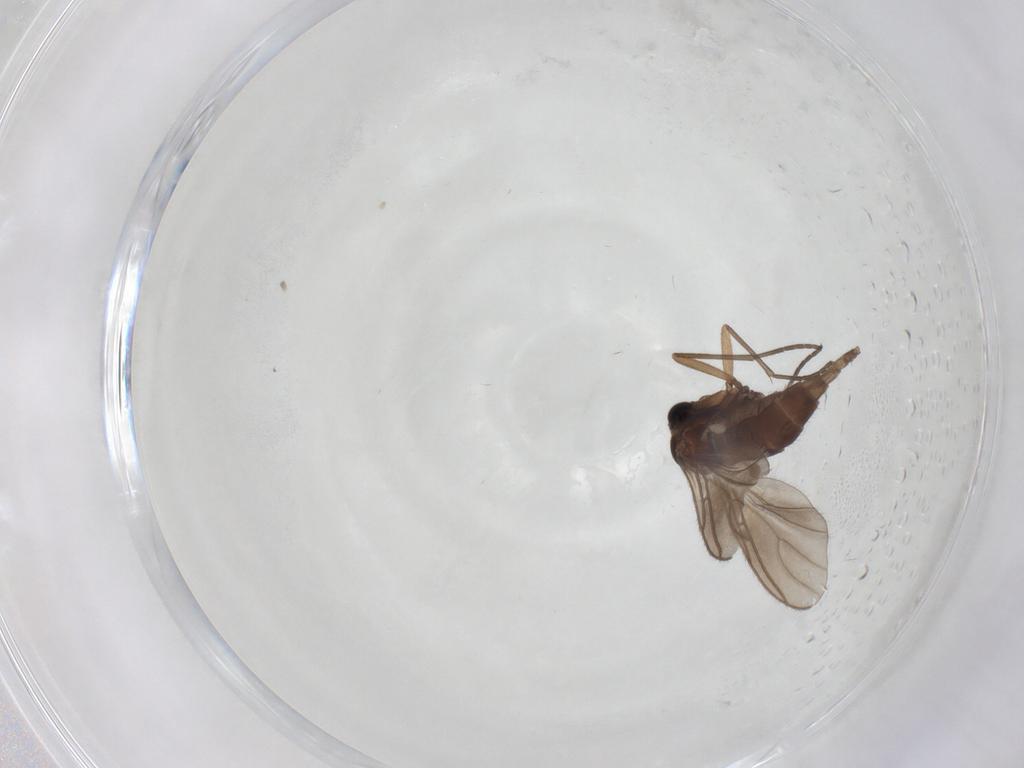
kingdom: Animalia
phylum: Arthropoda
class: Insecta
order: Diptera
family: Sciaridae
